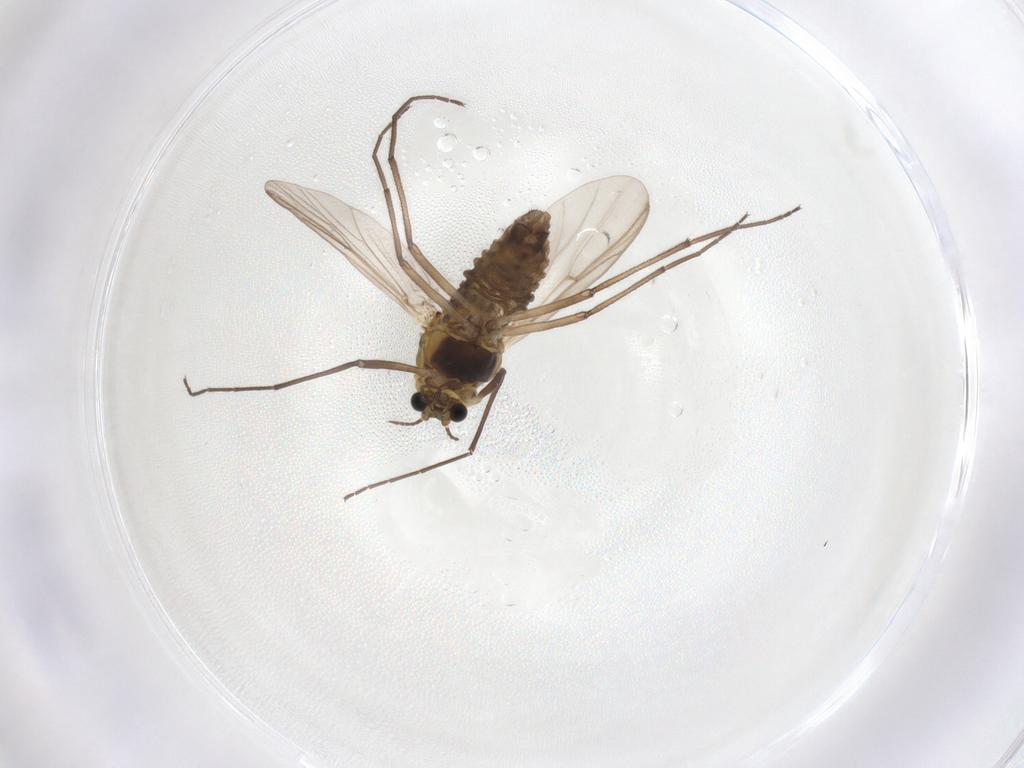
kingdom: Animalia
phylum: Arthropoda
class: Insecta
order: Diptera
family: Chironomidae
